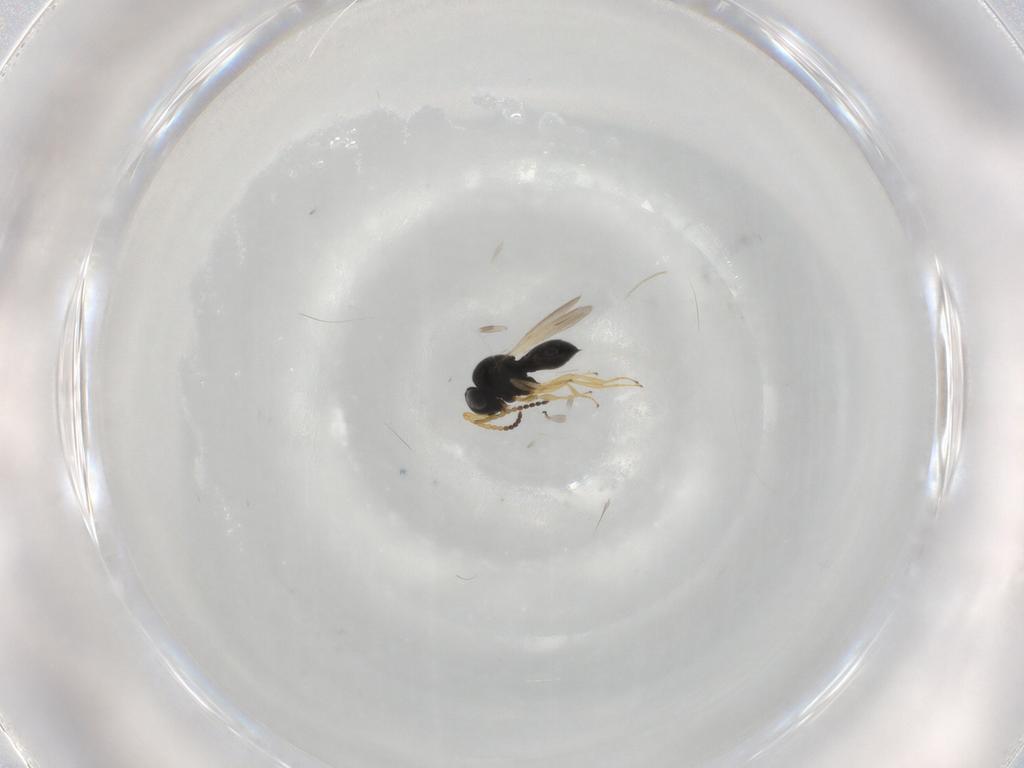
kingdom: Animalia
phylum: Arthropoda
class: Insecta
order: Hymenoptera
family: Scelionidae
